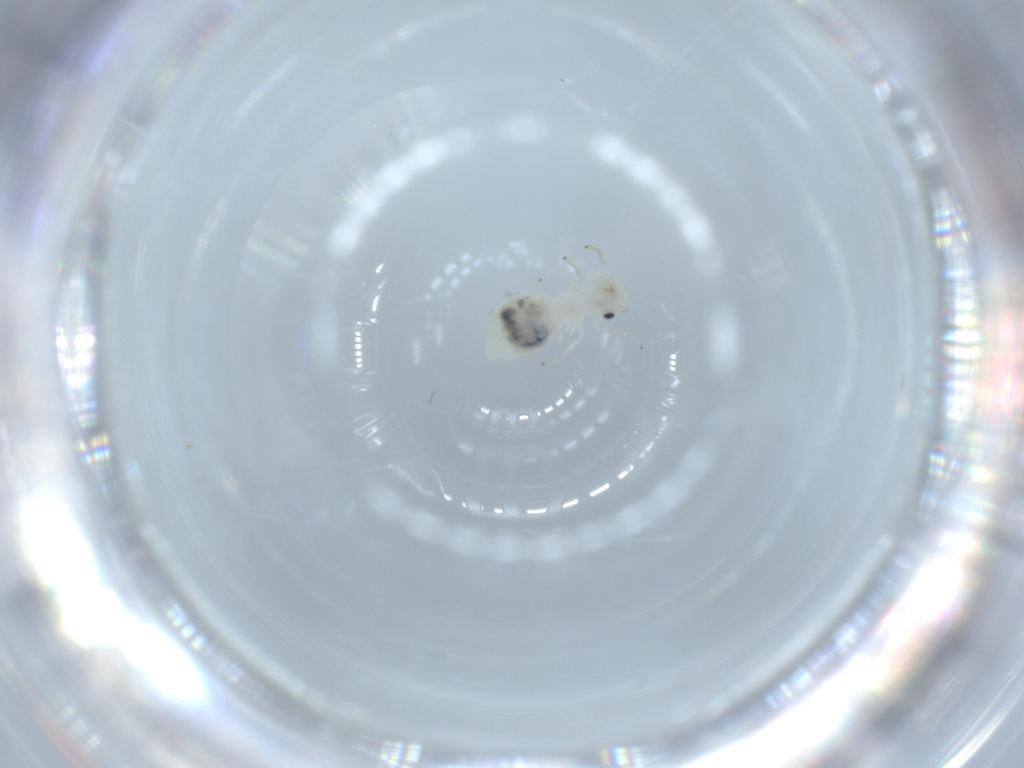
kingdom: Animalia
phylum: Arthropoda
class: Insecta
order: Psocodea
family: Caeciliusidae
